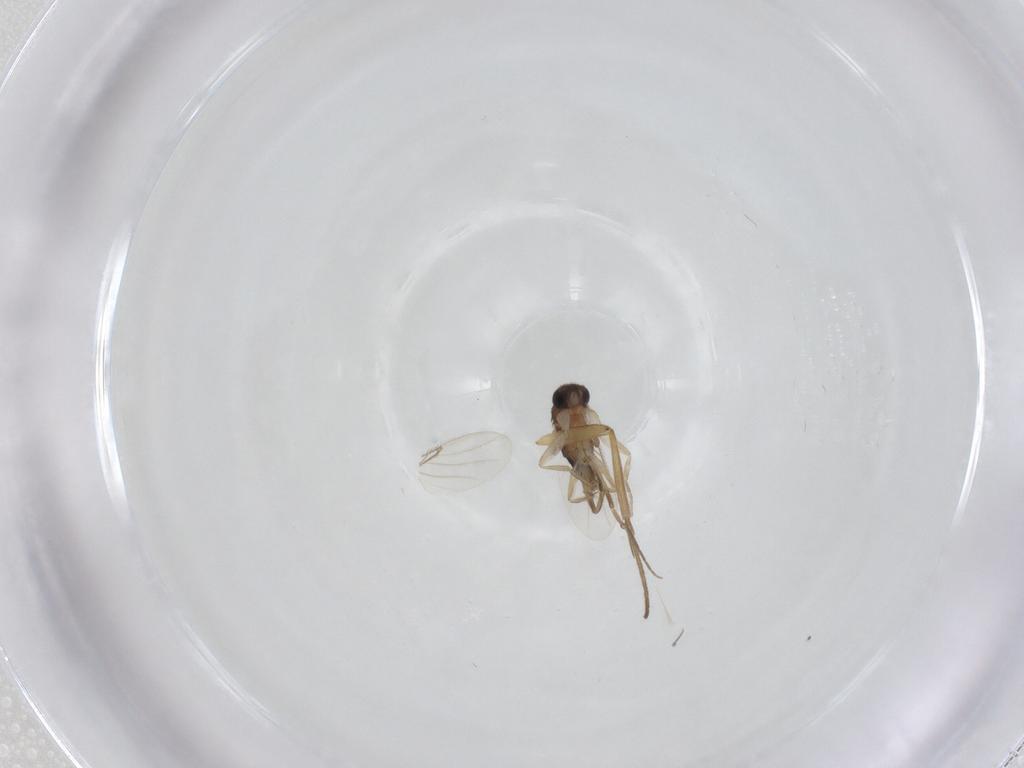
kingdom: Animalia
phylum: Arthropoda
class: Insecta
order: Diptera
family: Phoridae
